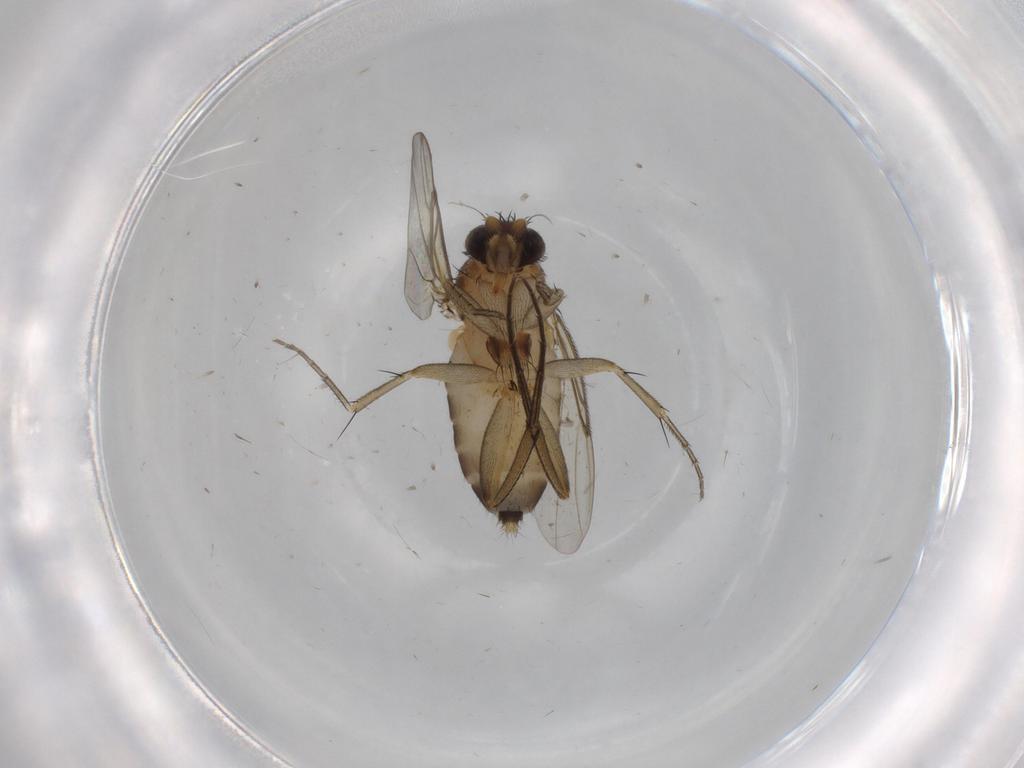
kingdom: Animalia
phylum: Arthropoda
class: Insecta
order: Diptera
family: Phoridae
